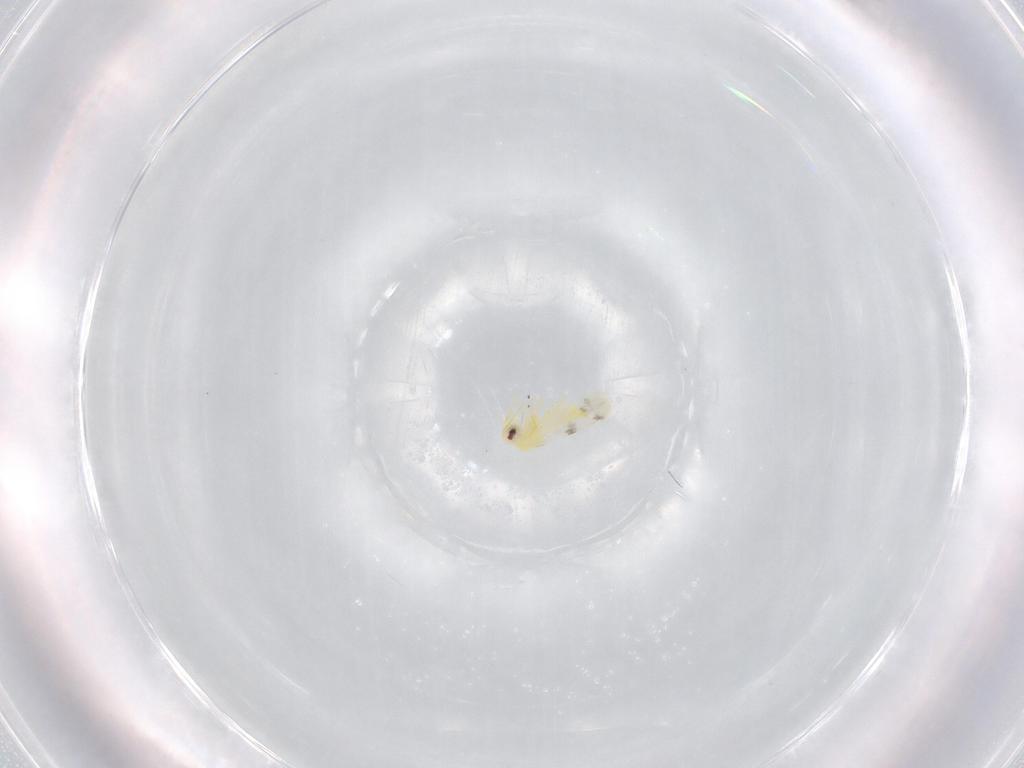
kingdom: Animalia
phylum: Arthropoda
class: Insecta
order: Hemiptera
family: Aleyrodidae
